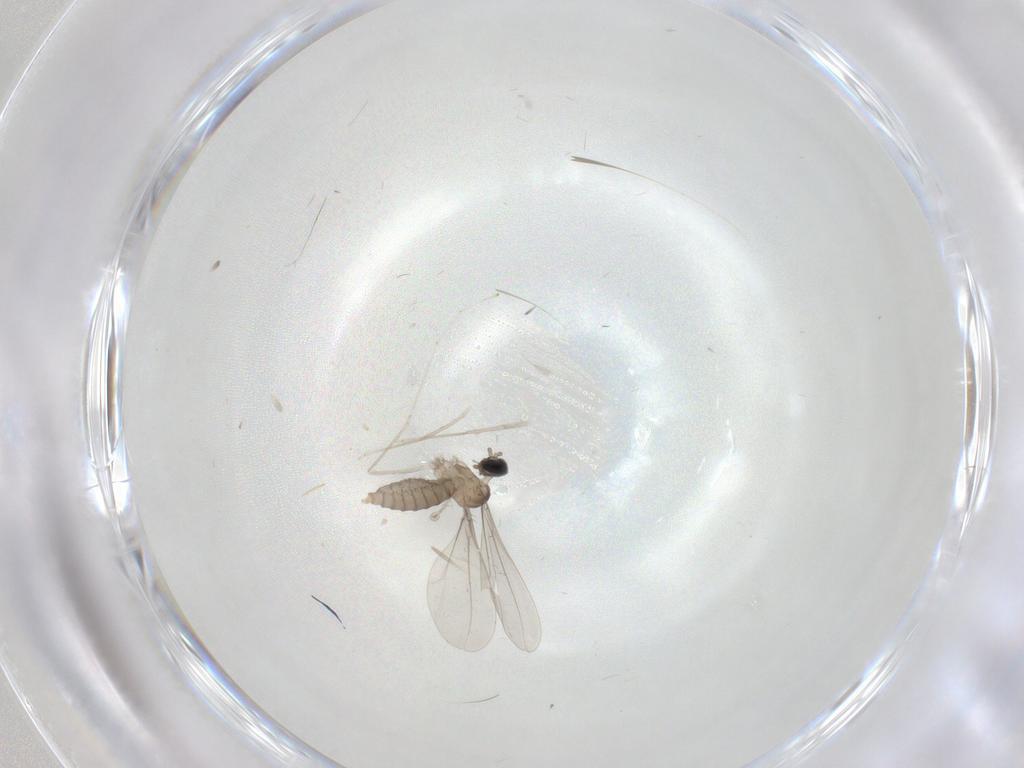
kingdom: Animalia
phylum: Arthropoda
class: Insecta
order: Diptera
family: Cecidomyiidae
